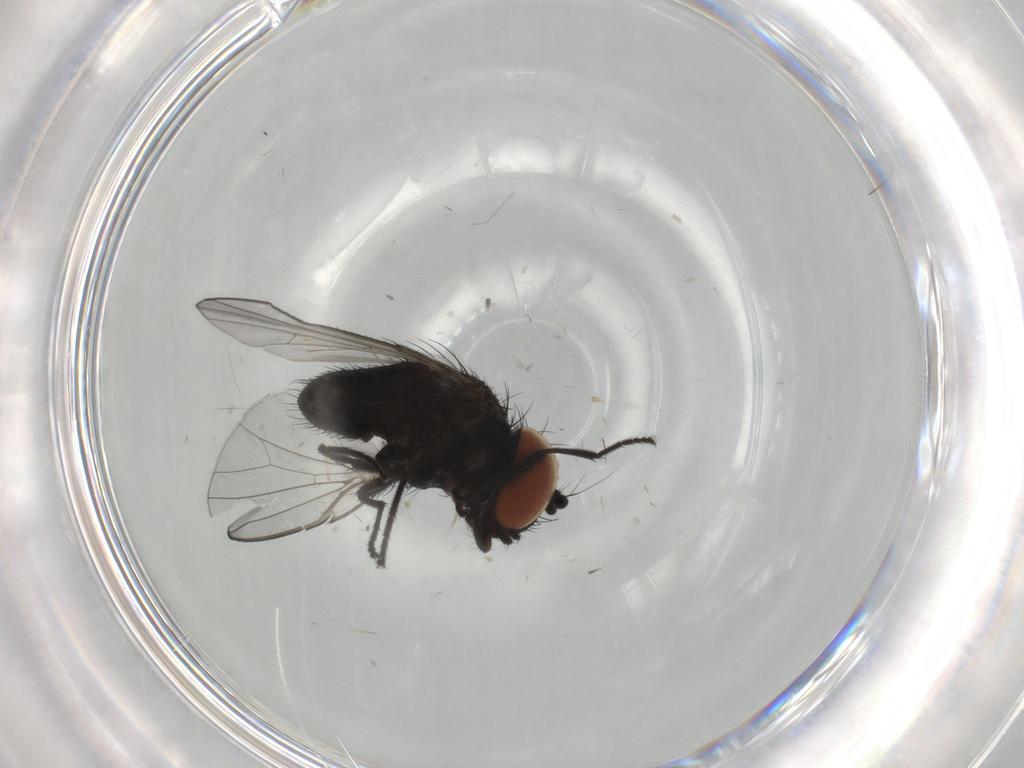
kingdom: Animalia
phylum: Arthropoda
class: Insecta
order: Diptera
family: Milichiidae
